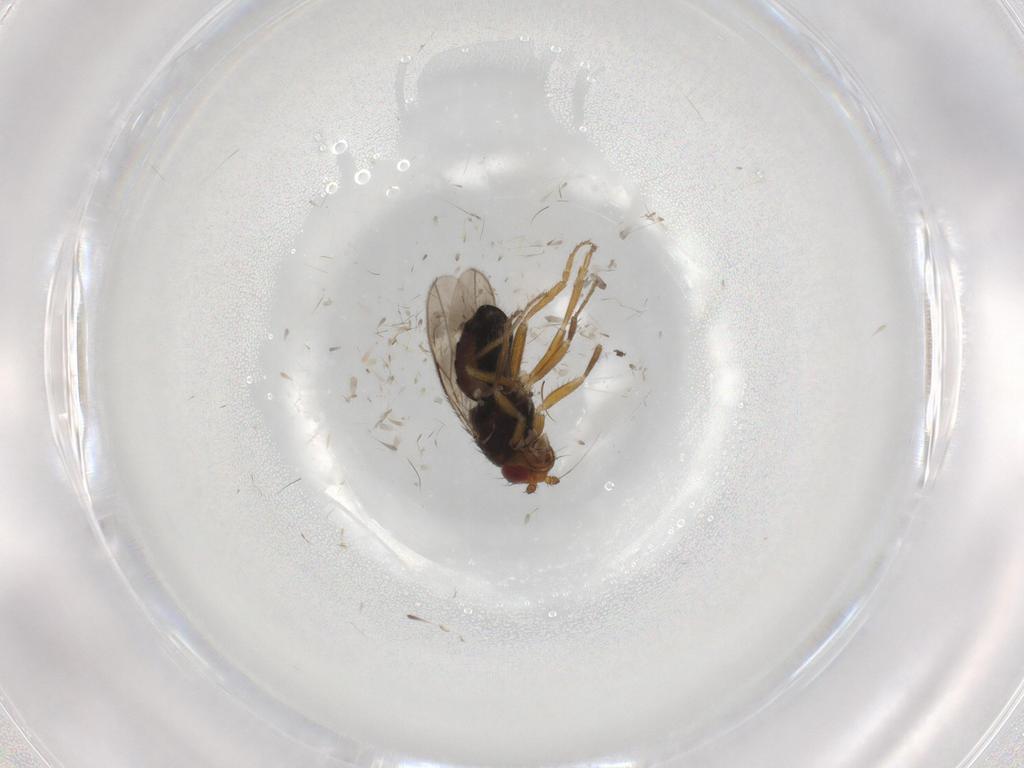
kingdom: Animalia
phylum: Arthropoda
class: Insecta
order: Diptera
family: Sphaeroceridae
